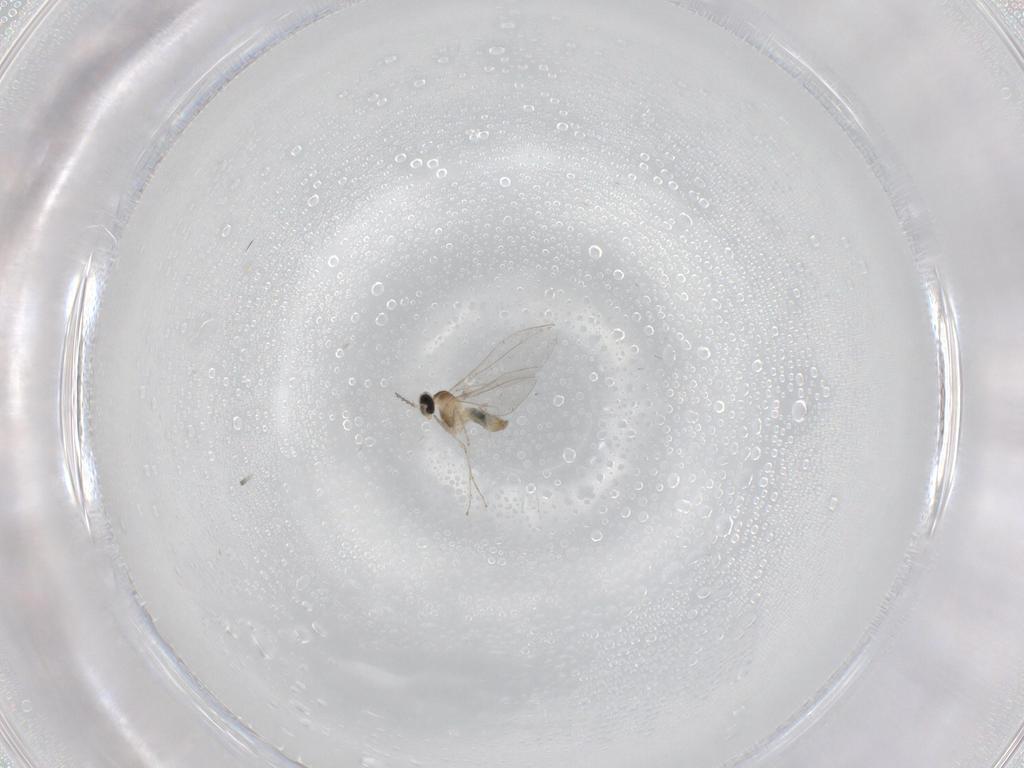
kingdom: Animalia
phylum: Arthropoda
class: Insecta
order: Diptera
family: Cecidomyiidae
